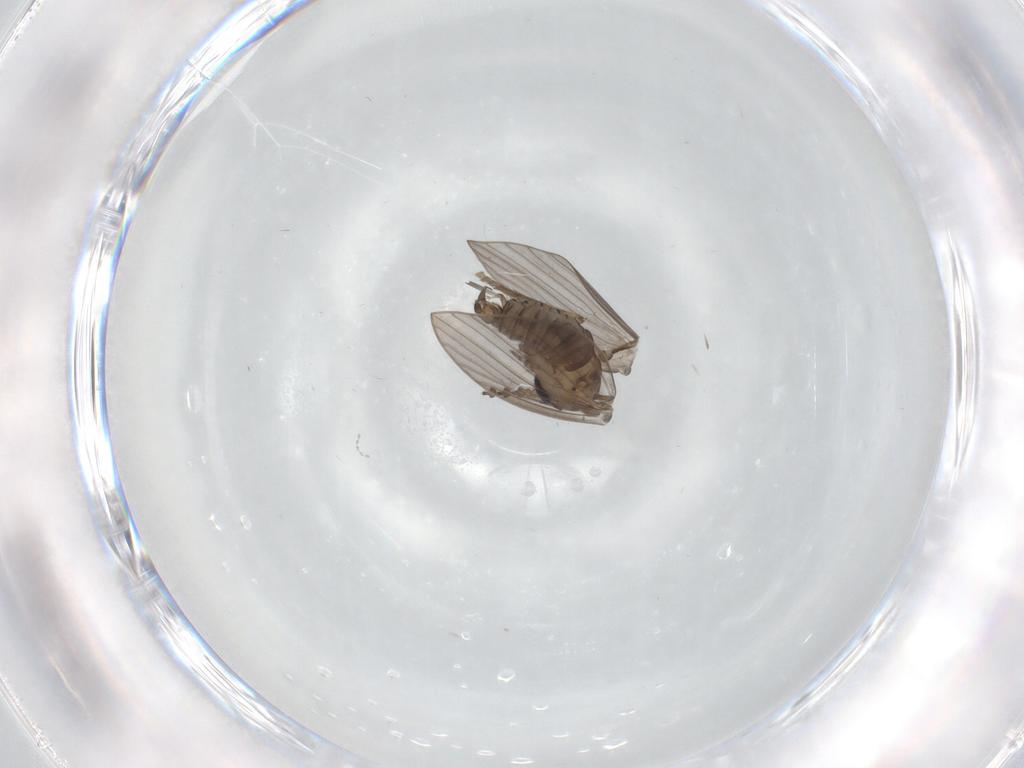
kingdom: Animalia
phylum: Arthropoda
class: Insecta
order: Diptera
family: Psychodidae
